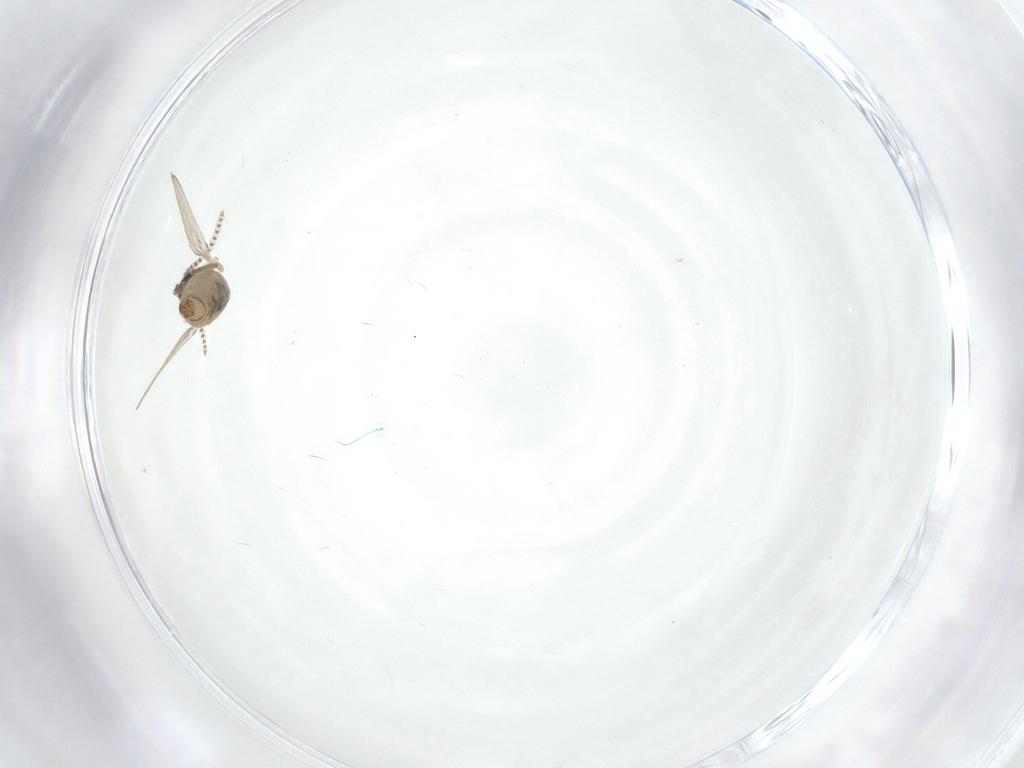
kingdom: Animalia
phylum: Arthropoda
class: Insecta
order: Diptera
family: Psychodidae
